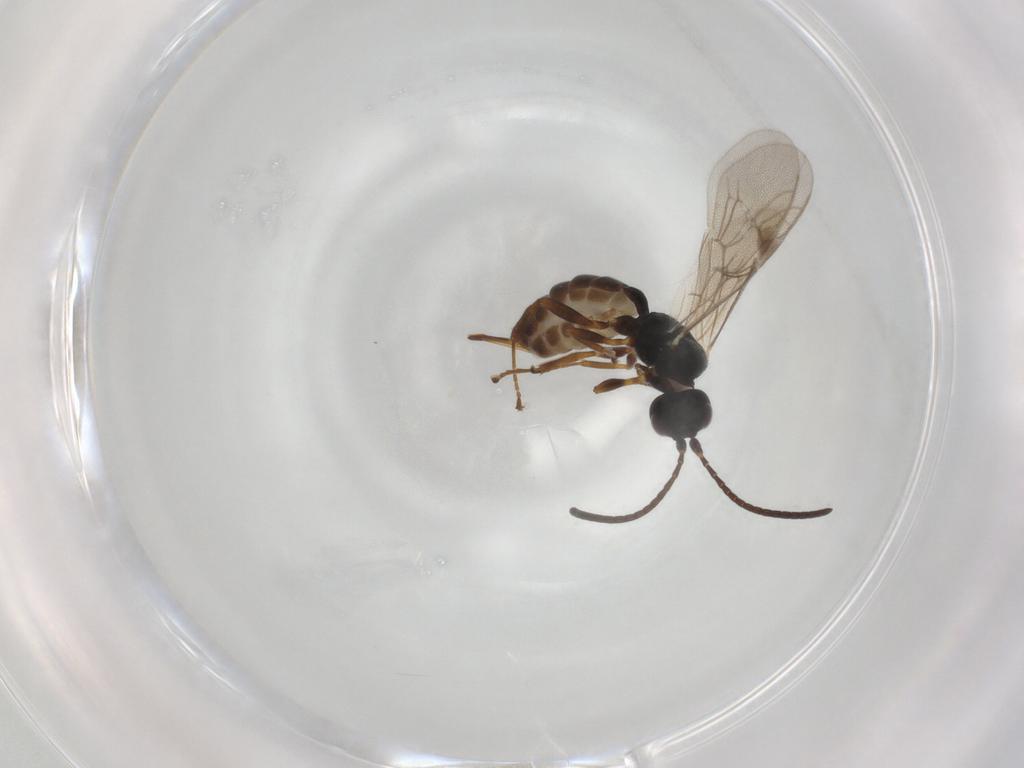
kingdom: Animalia
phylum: Arthropoda
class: Insecta
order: Hymenoptera
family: Ichneumonidae
